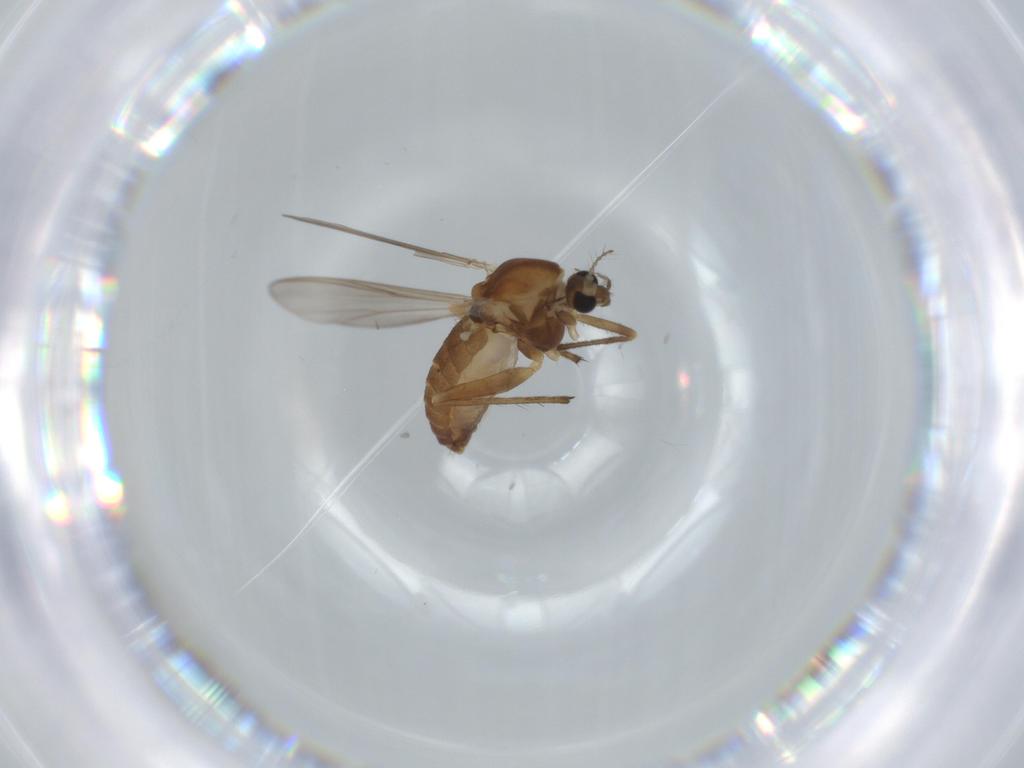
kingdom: Animalia
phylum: Arthropoda
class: Insecta
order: Diptera
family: Chironomidae
